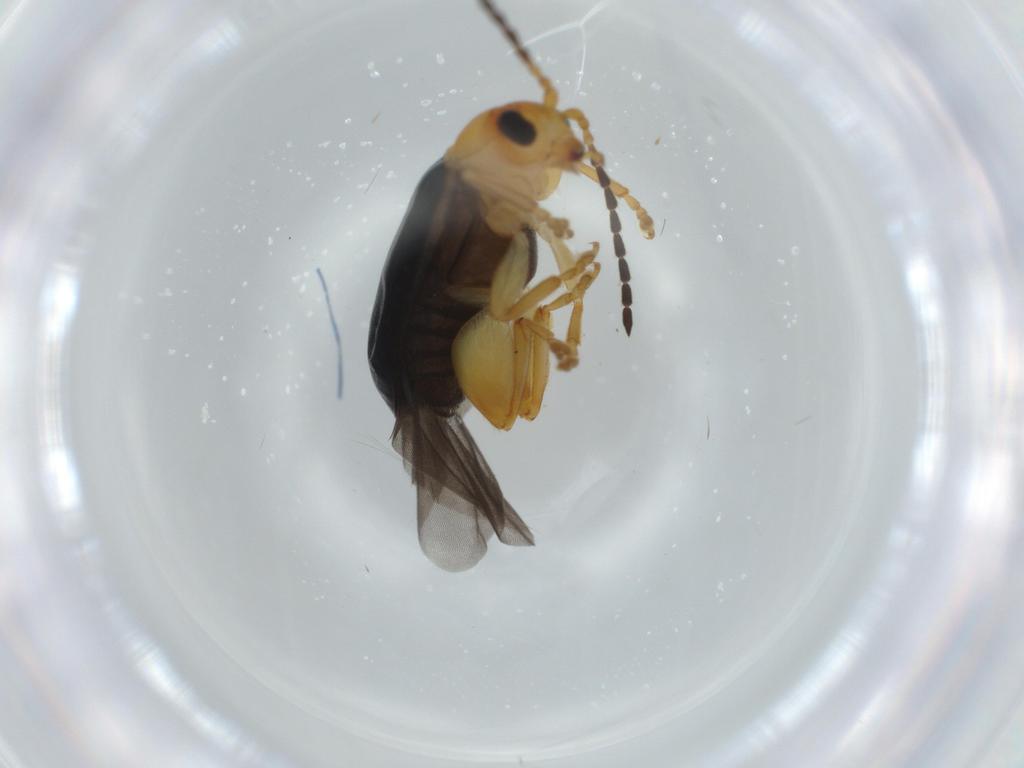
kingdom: Animalia
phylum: Arthropoda
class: Insecta
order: Coleoptera
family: Chrysomelidae
